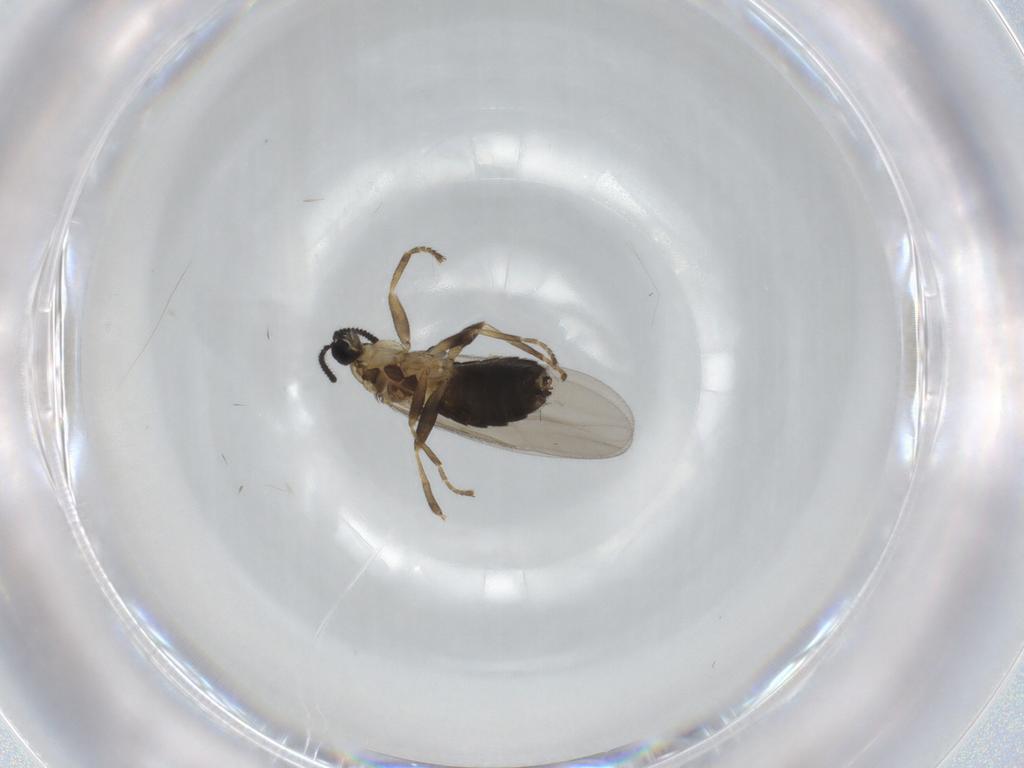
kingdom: Animalia
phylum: Arthropoda
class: Insecta
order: Diptera
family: Scatopsidae
